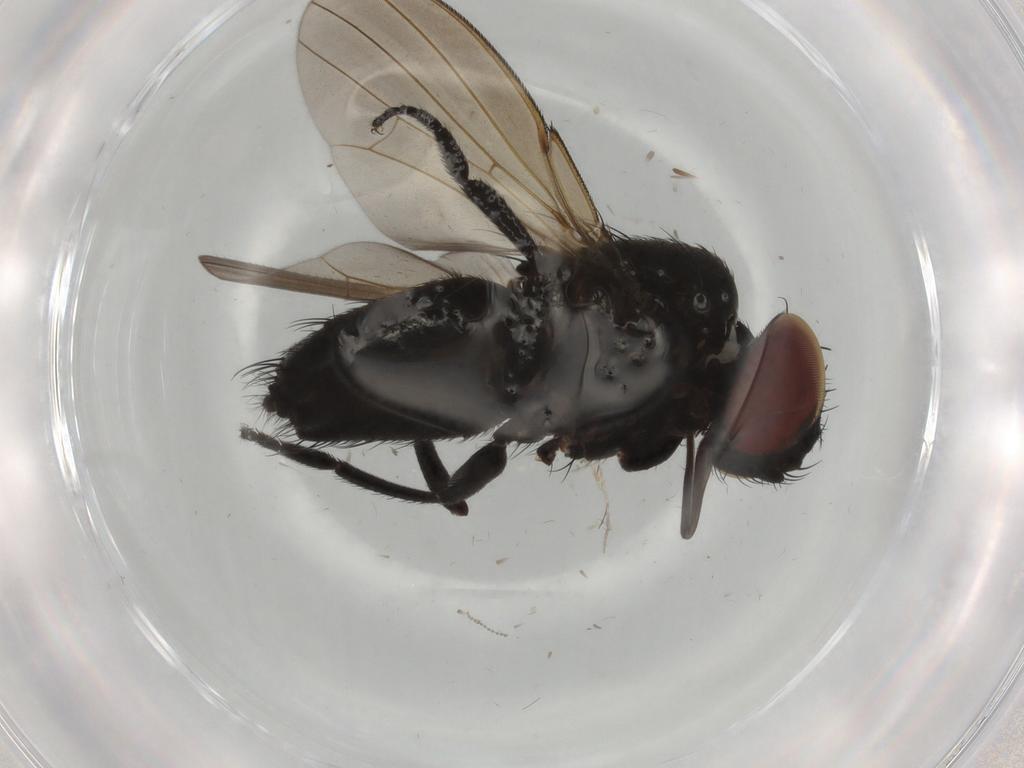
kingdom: Animalia
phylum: Arthropoda
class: Insecta
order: Diptera
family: Milichiidae
